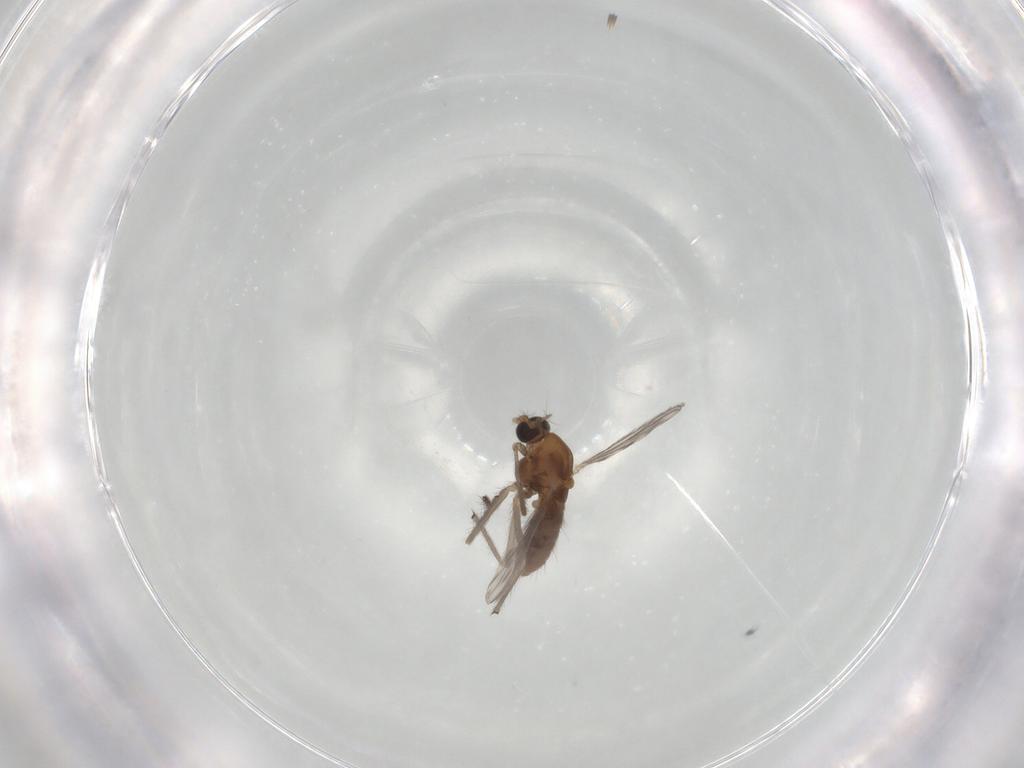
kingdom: Animalia
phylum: Arthropoda
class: Insecta
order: Diptera
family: Chironomidae
